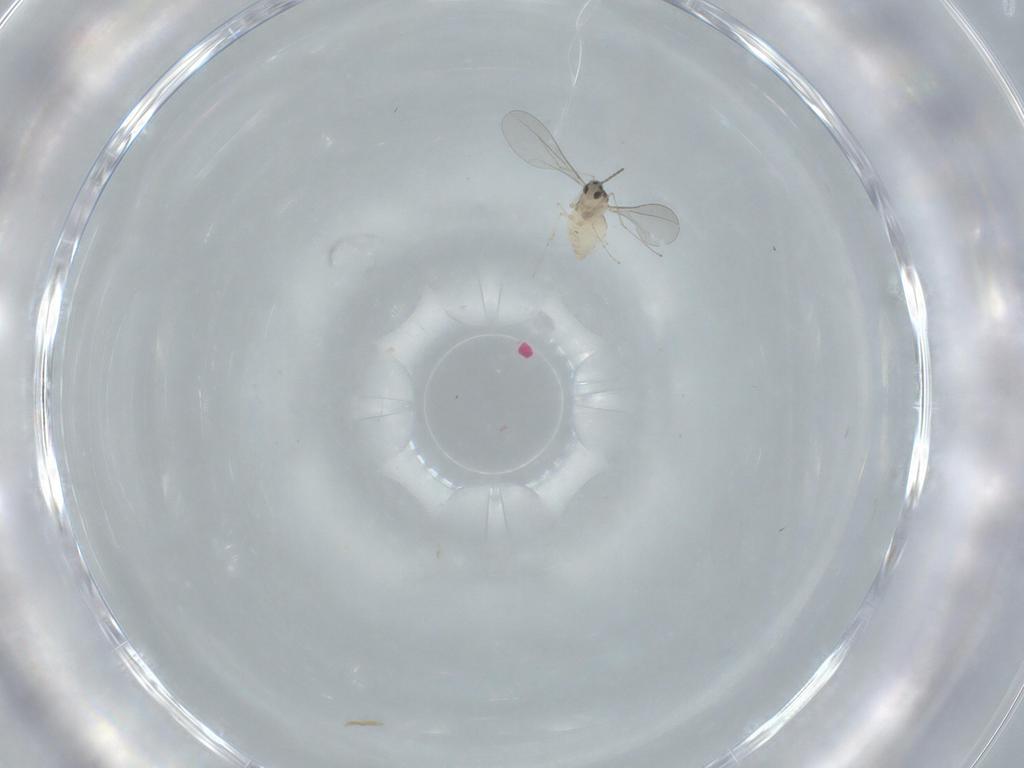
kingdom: Animalia
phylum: Arthropoda
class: Insecta
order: Diptera
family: Cecidomyiidae
